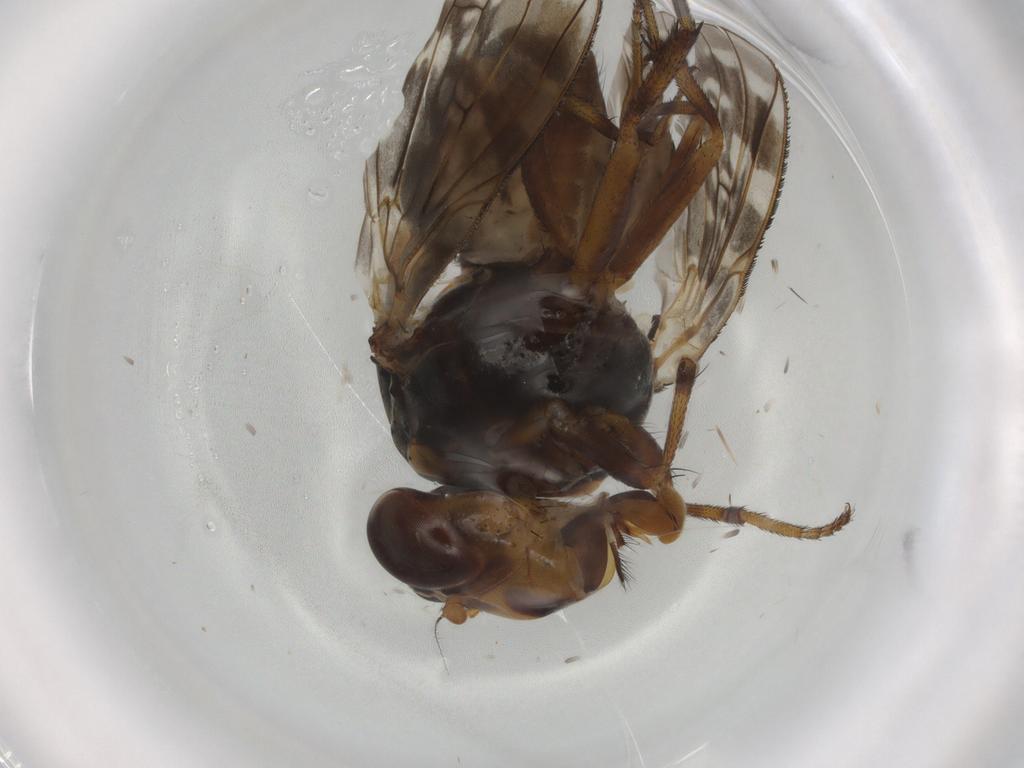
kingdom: Animalia
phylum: Arthropoda
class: Insecta
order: Diptera
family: Sarcophagidae
